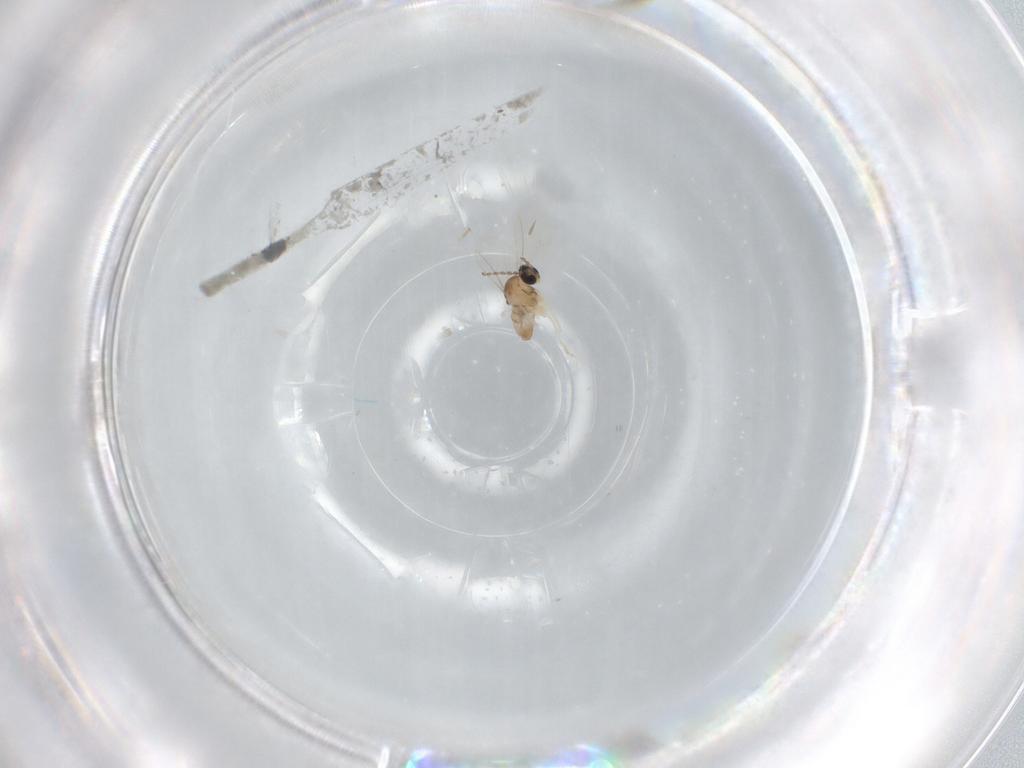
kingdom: Animalia
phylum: Arthropoda
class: Insecta
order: Diptera
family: Cecidomyiidae
